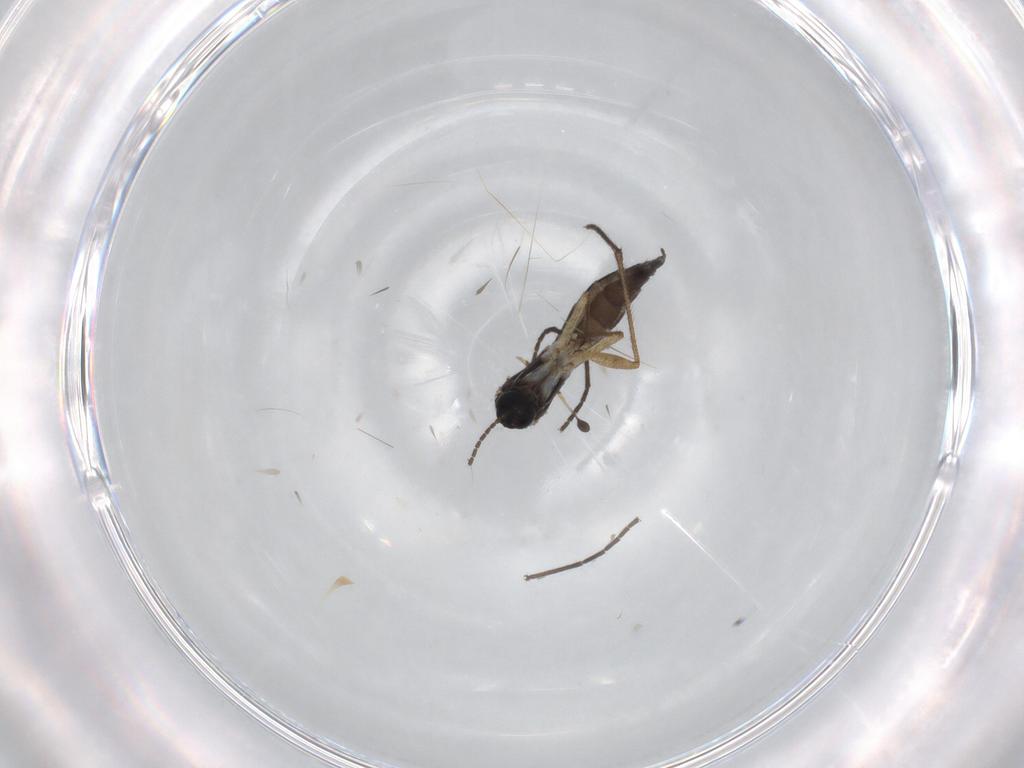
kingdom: Animalia
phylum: Arthropoda
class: Insecta
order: Diptera
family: Sciaridae
